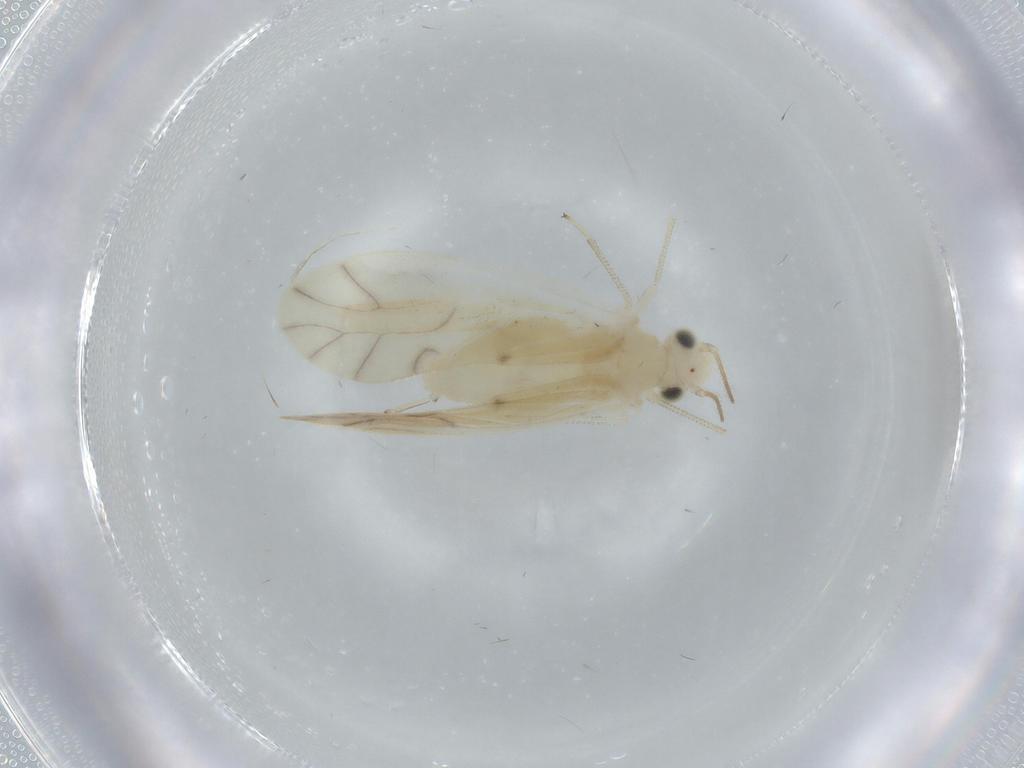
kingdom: Animalia
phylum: Arthropoda
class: Insecta
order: Psocodea
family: Caeciliusidae
